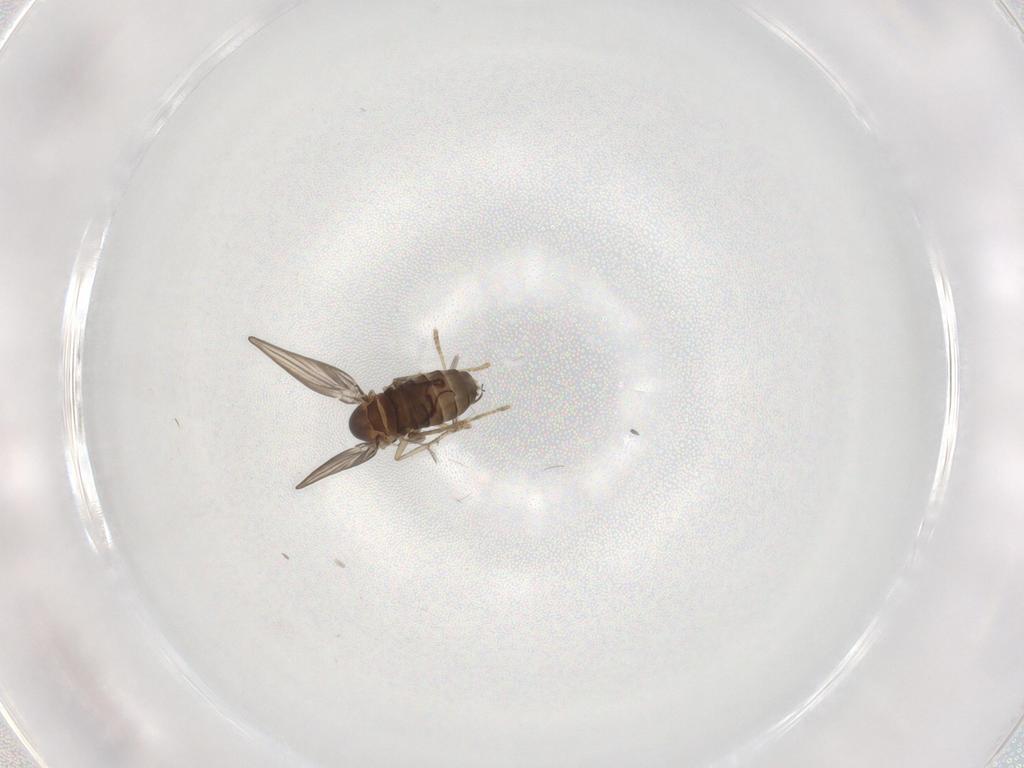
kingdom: Animalia
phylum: Arthropoda
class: Insecta
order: Diptera
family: Psychodidae
